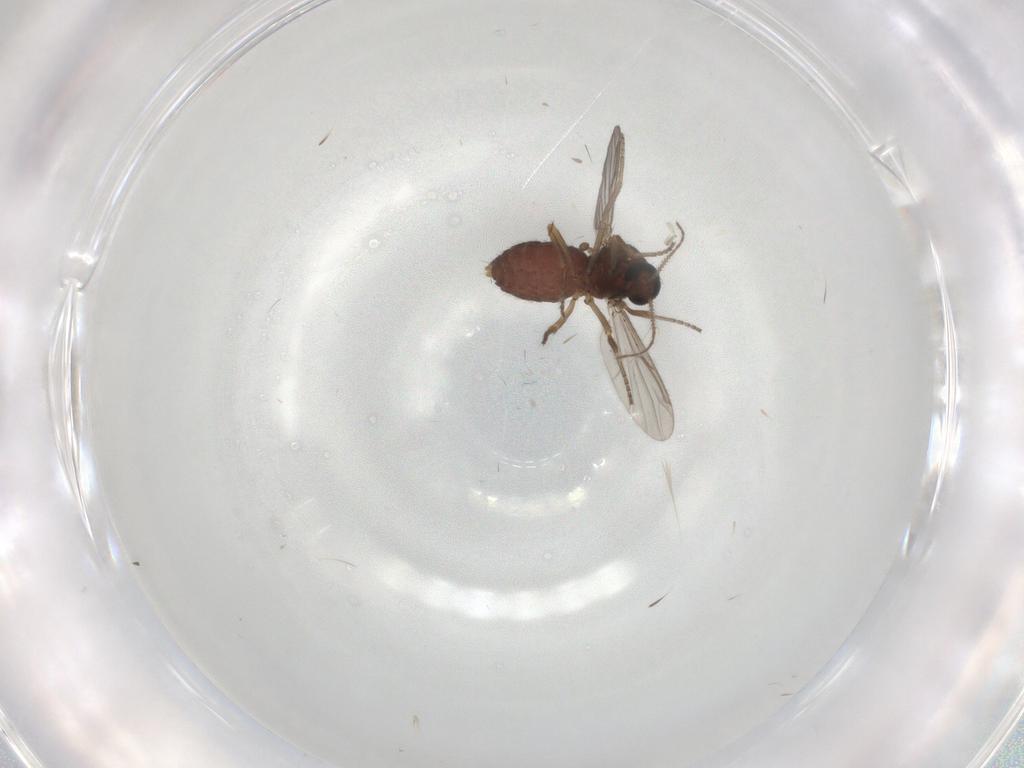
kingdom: Animalia
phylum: Arthropoda
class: Insecta
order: Diptera
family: Ceratopogonidae
